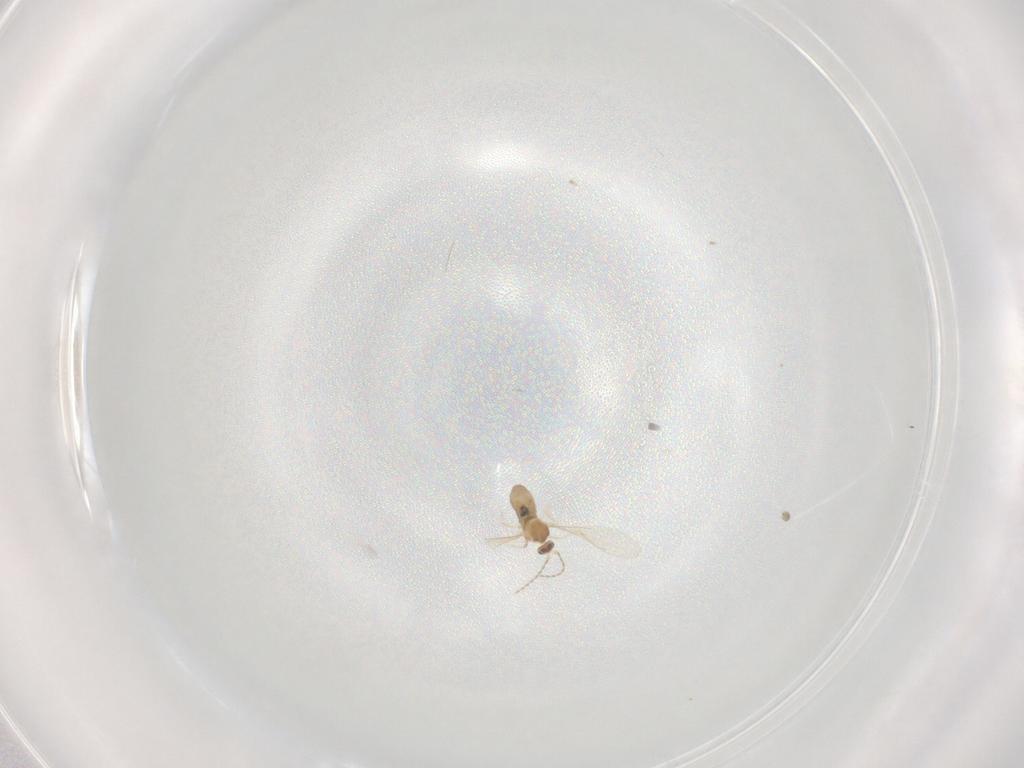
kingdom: Animalia
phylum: Arthropoda
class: Insecta
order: Diptera
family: Cecidomyiidae
